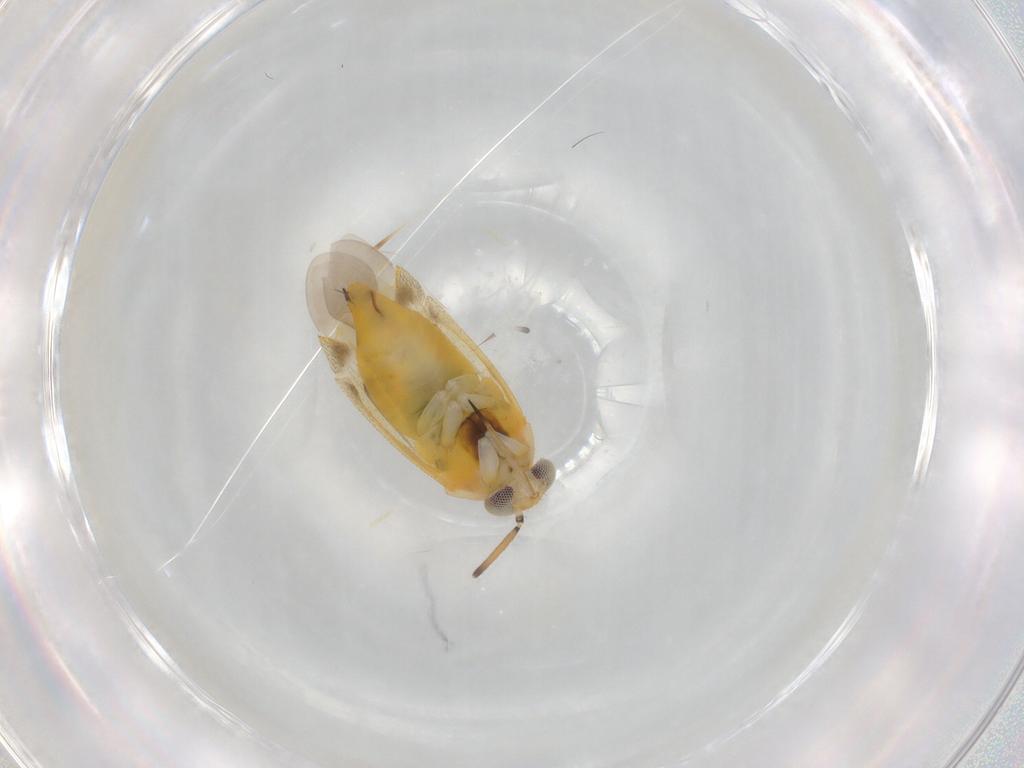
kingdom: Animalia
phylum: Arthropoda
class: Insecta
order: Hemiptera
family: Miridae
